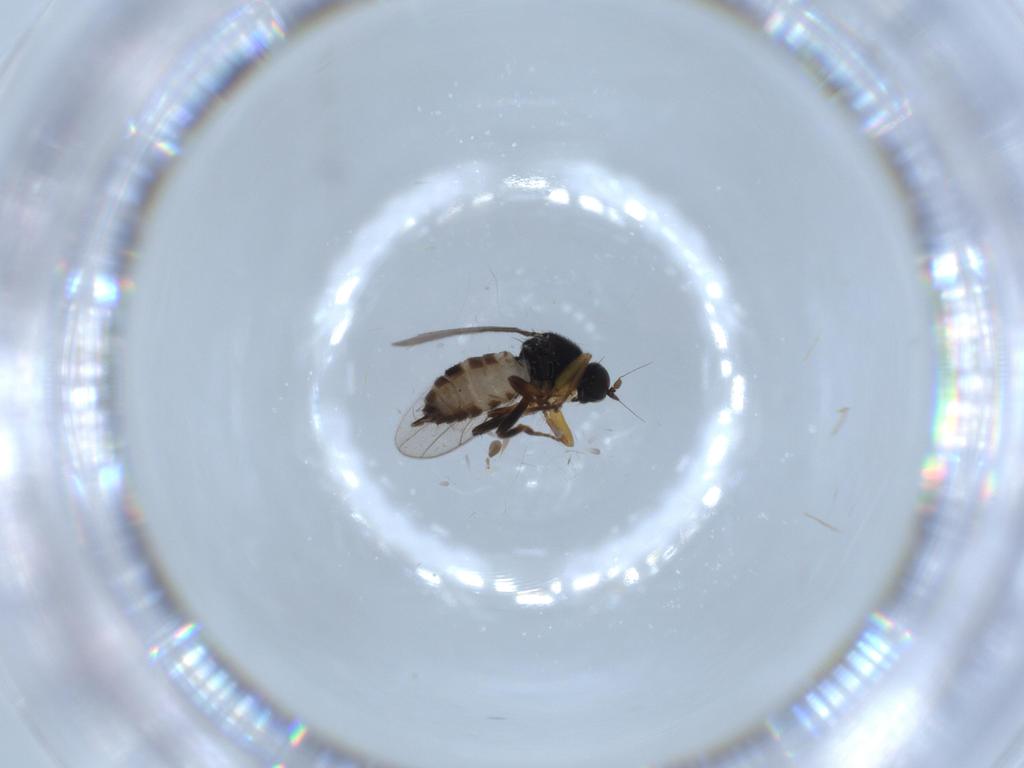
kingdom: Animalia
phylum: Arthropoda
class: Insecta
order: Diptera
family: Hybotidae
